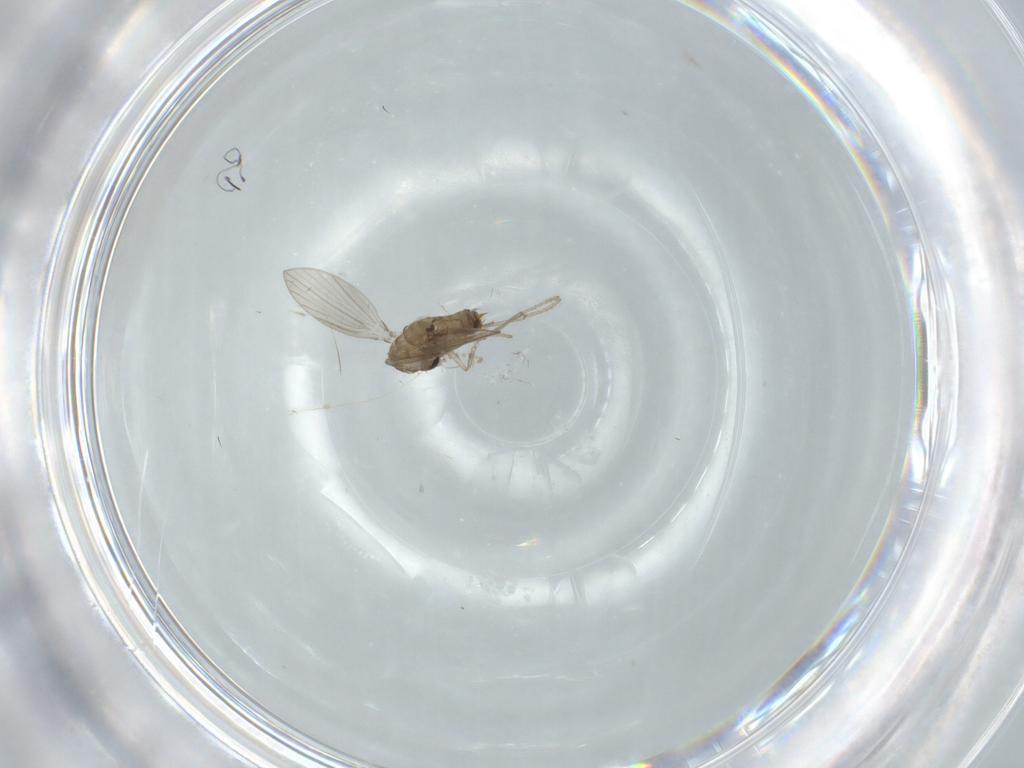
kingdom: Animalia
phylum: Arthropoda
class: Insecta
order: Diptera
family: Psychodidae
